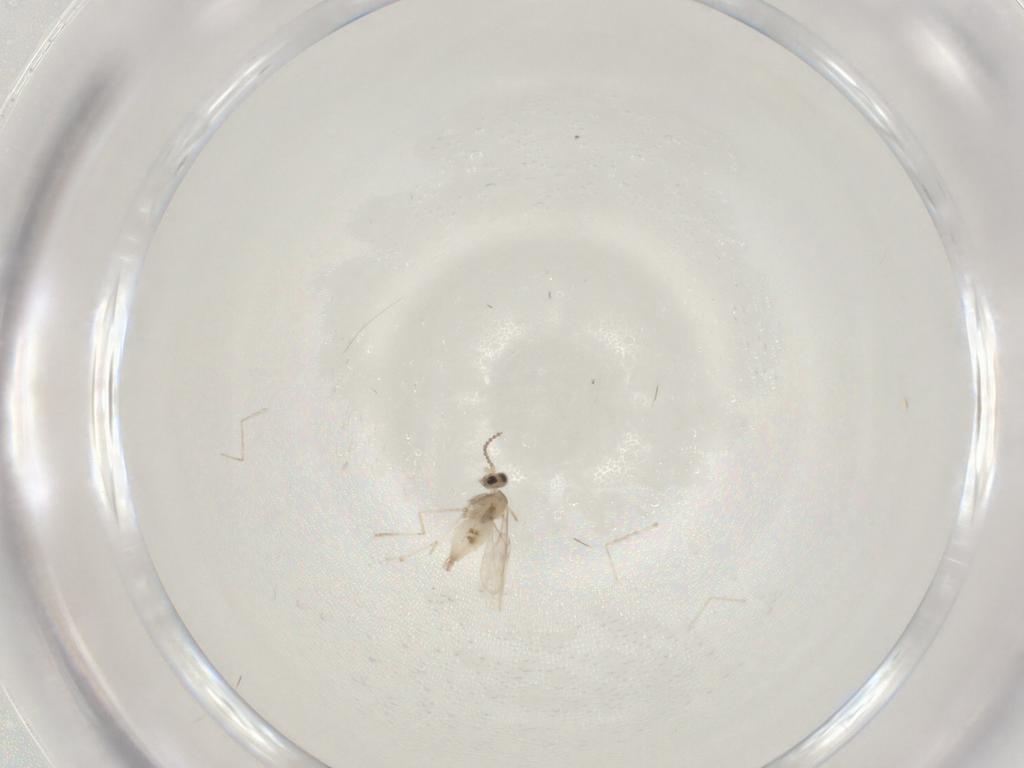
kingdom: Animalia
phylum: Arthropoda
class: Insecta
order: Diptera
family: Cecidomyiidae
